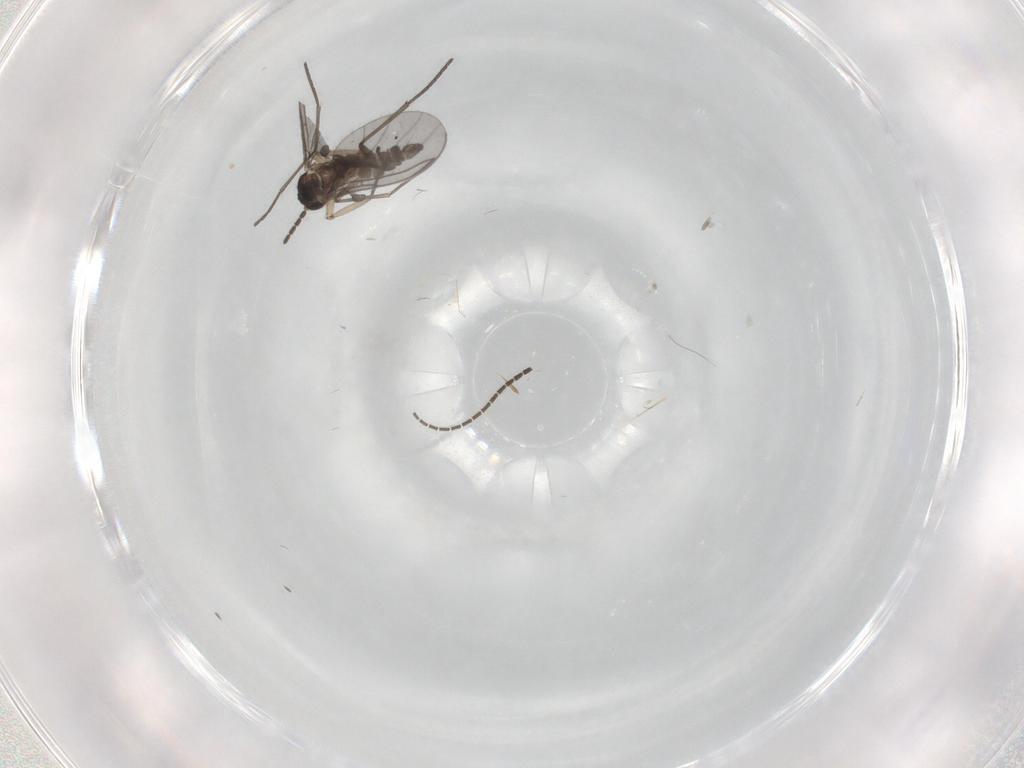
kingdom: Animalia
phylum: Arthropoda
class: Insecta
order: Diptera
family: Sciaridae
